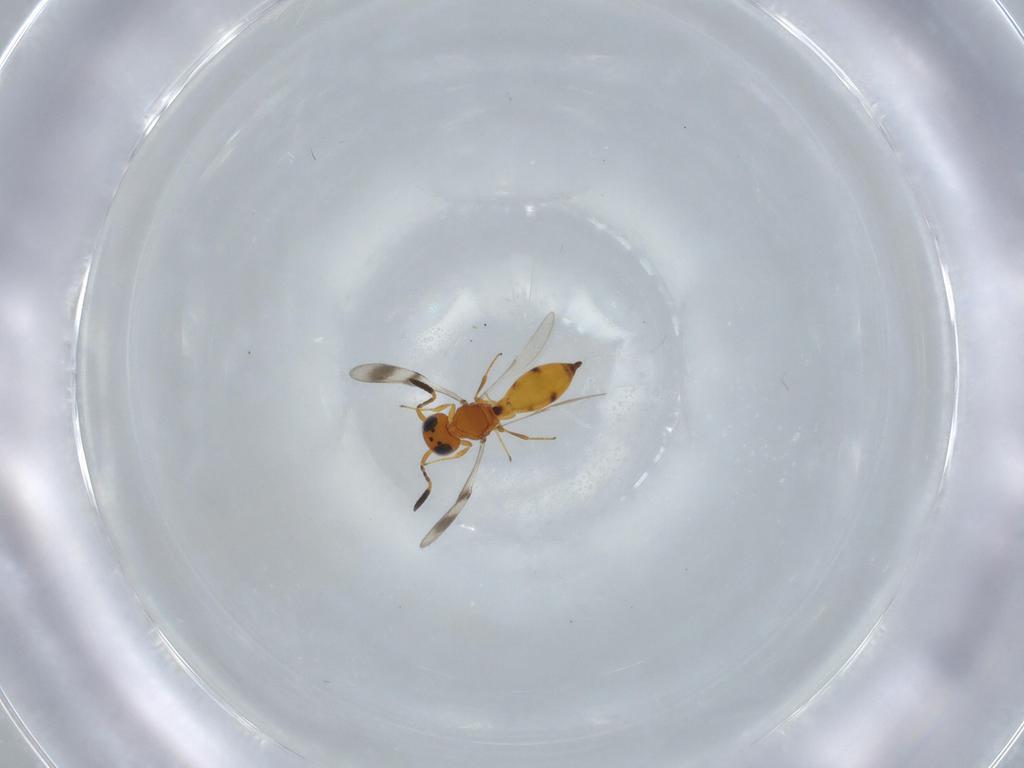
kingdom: Animalia
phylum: Arthropoda
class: Insecta
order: Hymenoptera
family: Scelionidae
